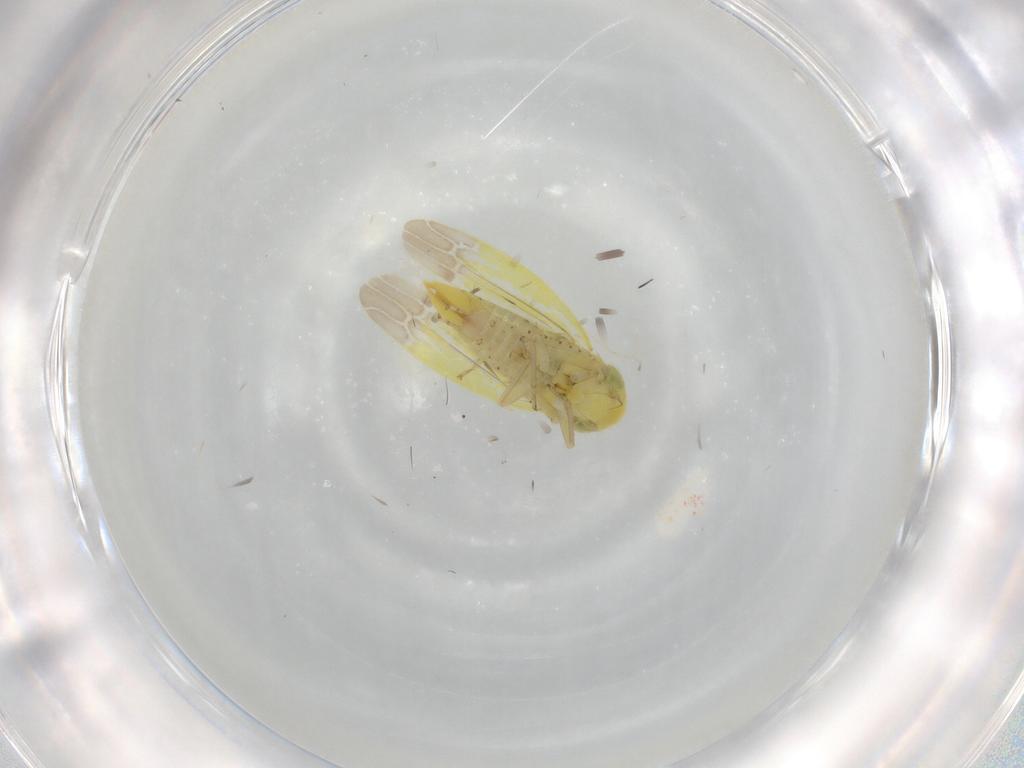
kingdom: Animalia
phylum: Arthropoda
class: Insecta
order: Hemiptera
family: Cicadellidae
